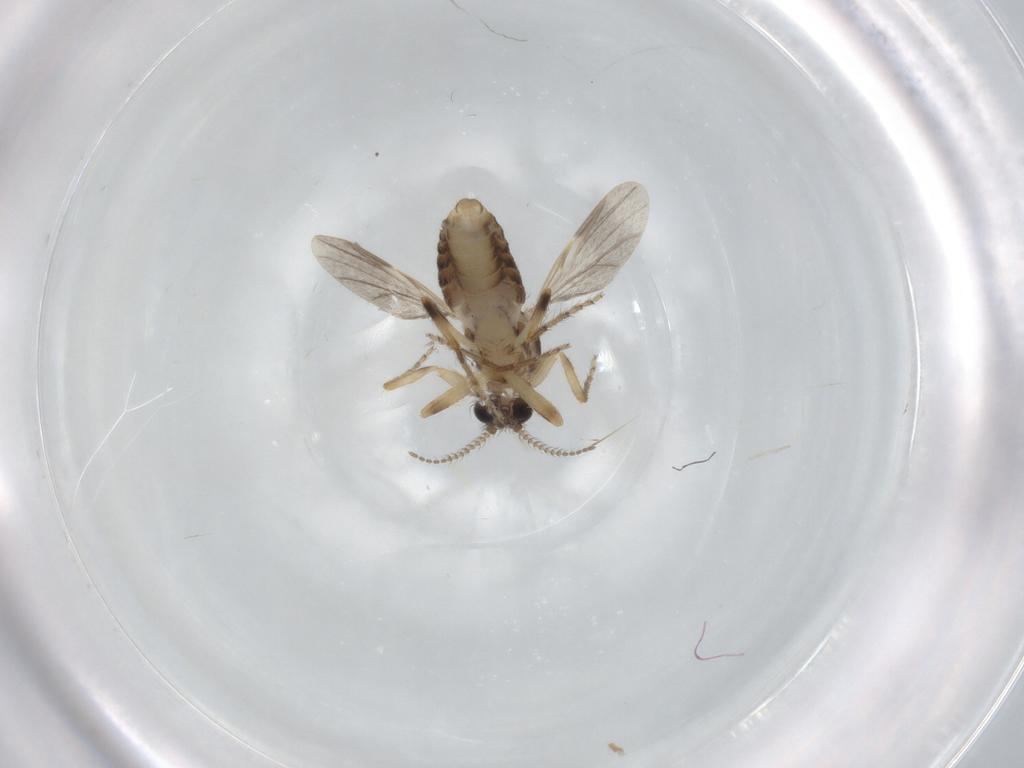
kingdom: Animalia
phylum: Arthropoda
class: Insecta
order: Diptera
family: Ceratopogonidae
